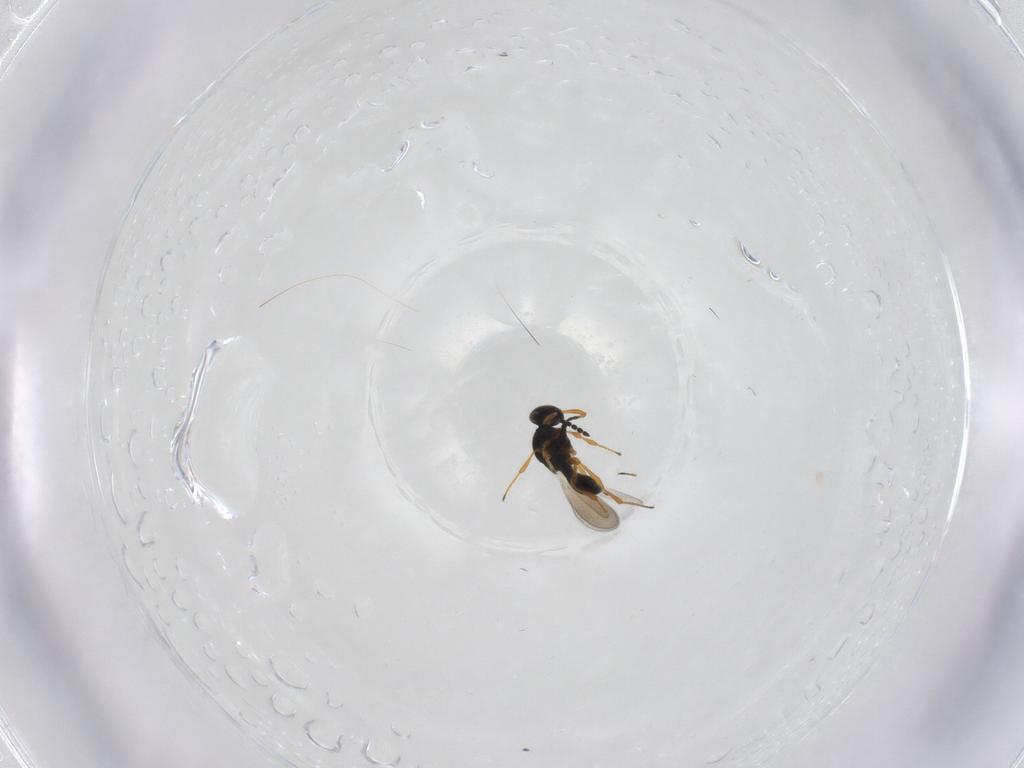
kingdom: Animalia
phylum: Arthropoda
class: Insecta
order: Hymenoptera
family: Platygastridae
